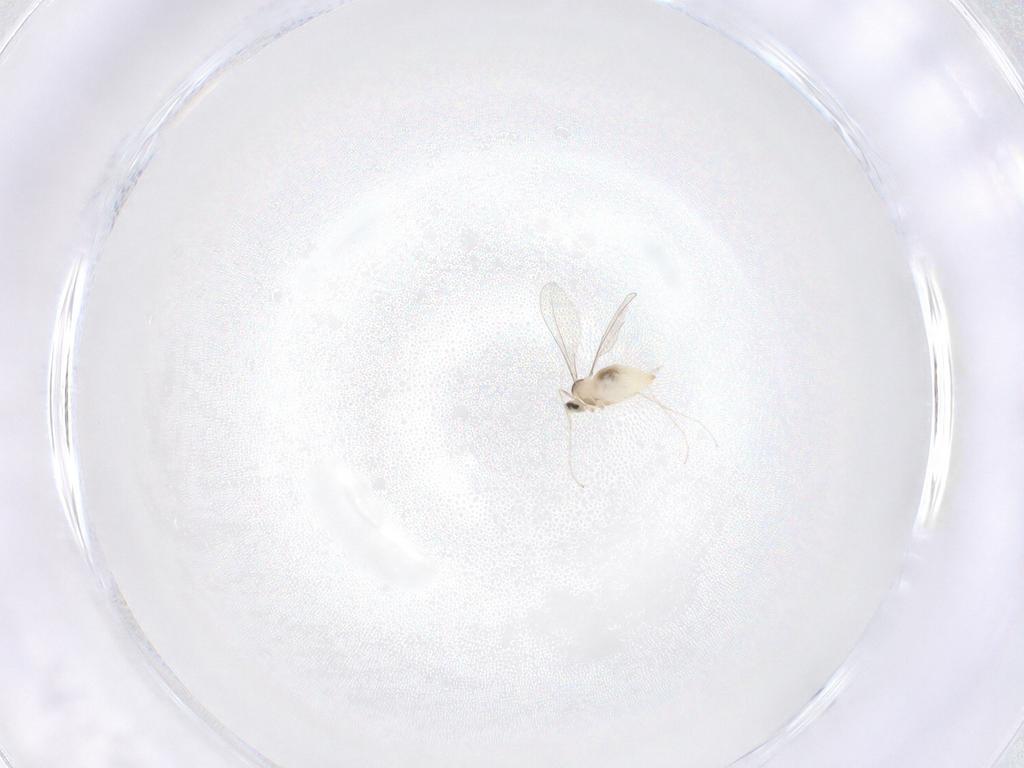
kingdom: Animalia
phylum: Arthropoda
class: Insecta
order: Diptera
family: Cecidomyiidae
